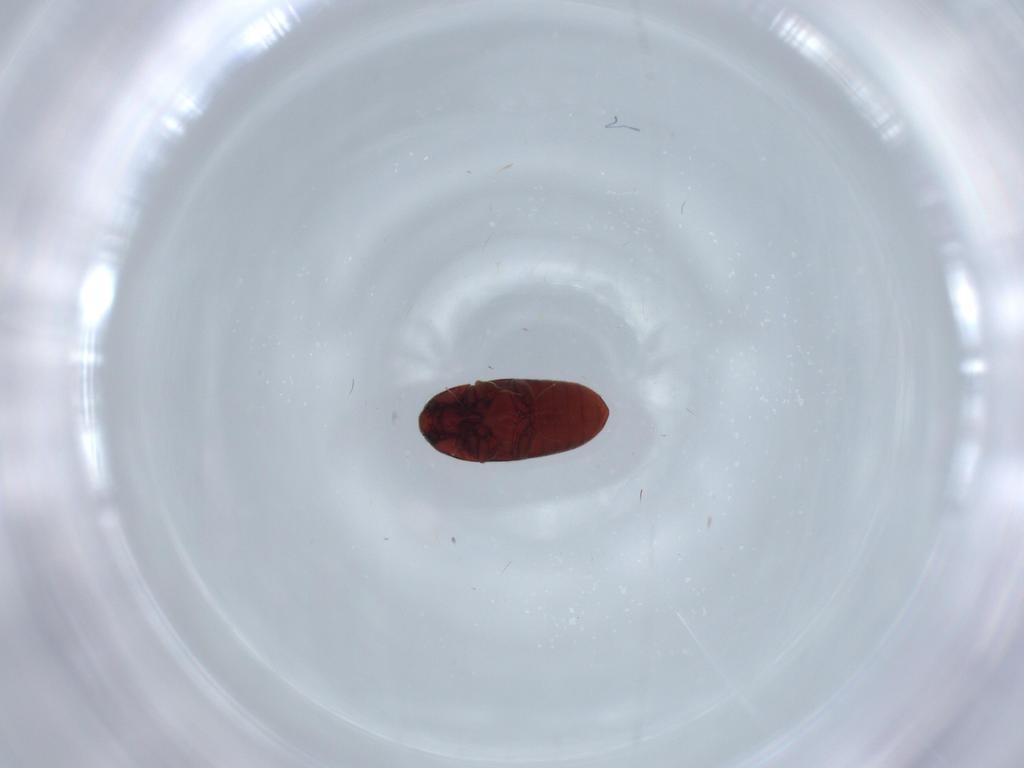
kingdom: Animalia
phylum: Arthropoda
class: Insecta
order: Coleoptera
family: Throscidae
